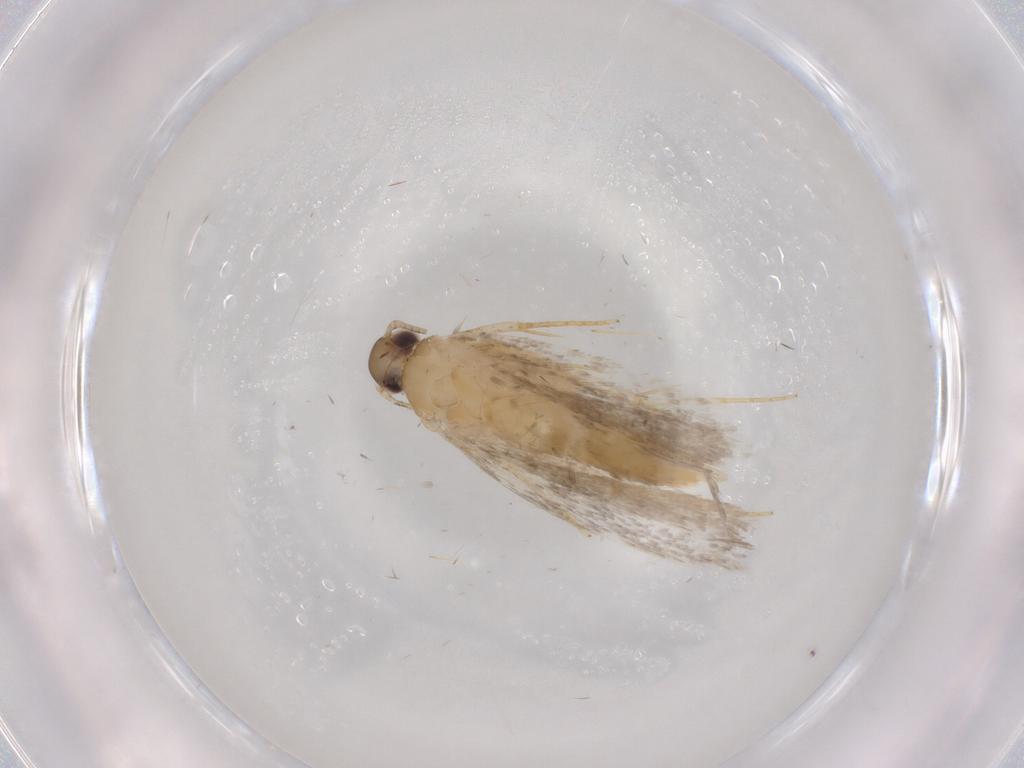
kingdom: Animalia
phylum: Arthropoda
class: Insecta
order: Lepidoptera
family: Autostichidae
